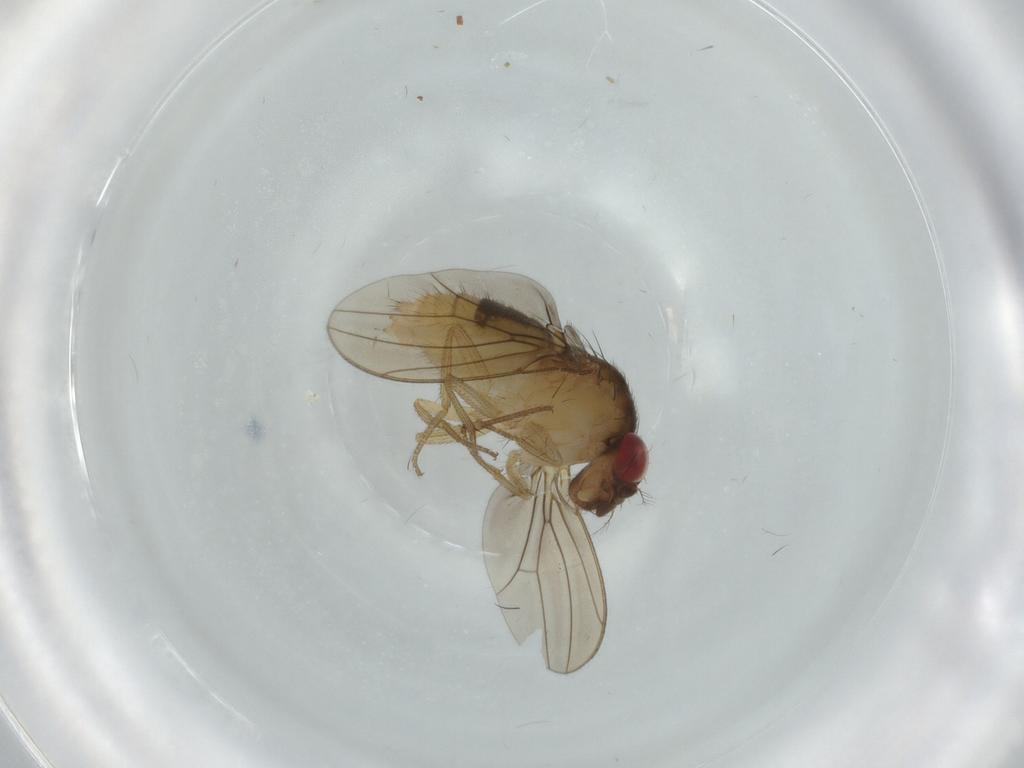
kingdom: Animalia
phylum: Arthropoda
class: Insecta
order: Diptera
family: Drosophilidae
